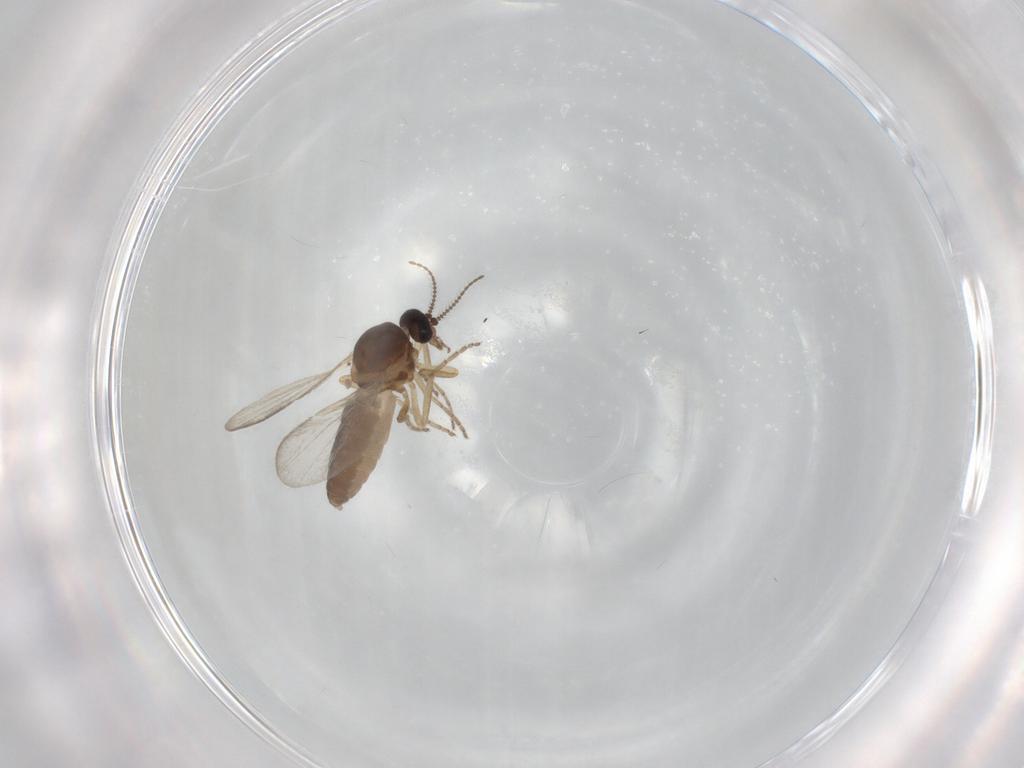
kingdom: Animalia
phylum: Arthropoda
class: Insecta
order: Diptera
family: Ceratopogonidae
